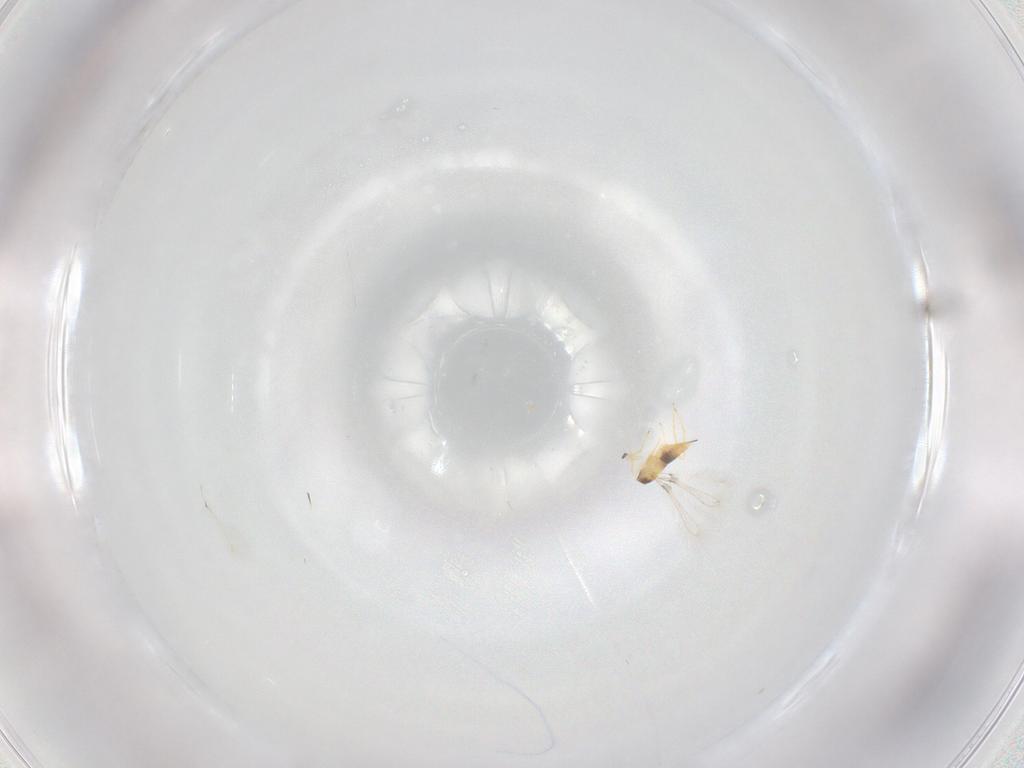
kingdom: Animalia
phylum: Arthropoda
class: Insecta
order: Hymenoptera
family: Mymaridae
